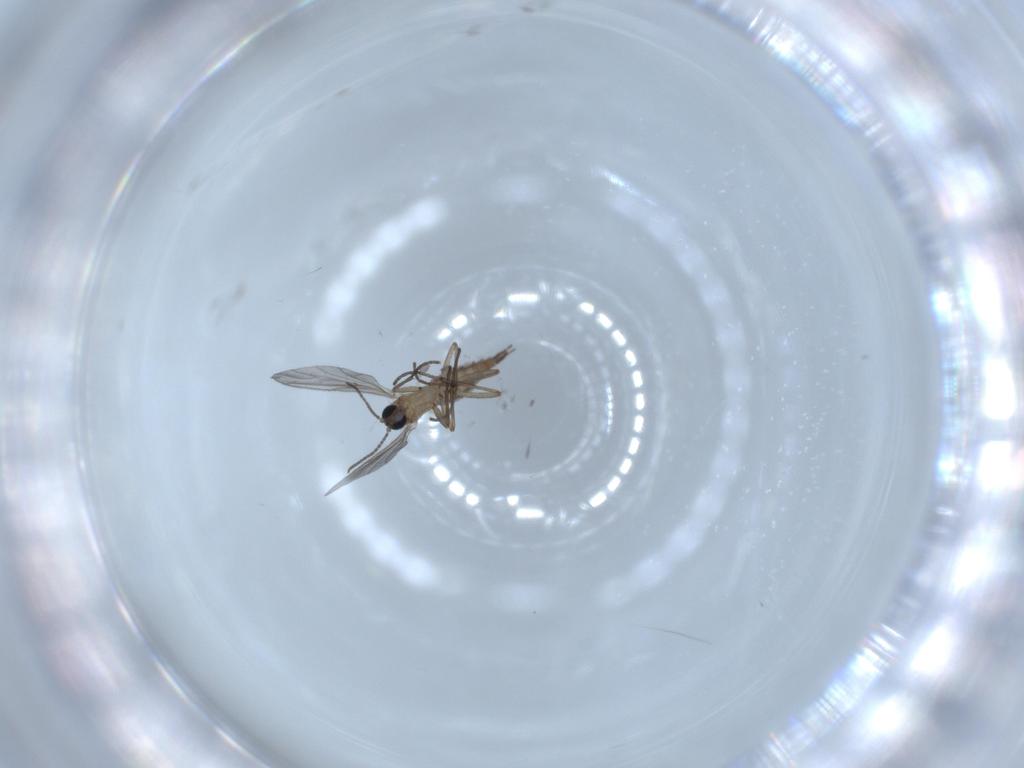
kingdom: Animalia
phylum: Arthropoda
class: Insecta
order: Diptera
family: Sciaridae
